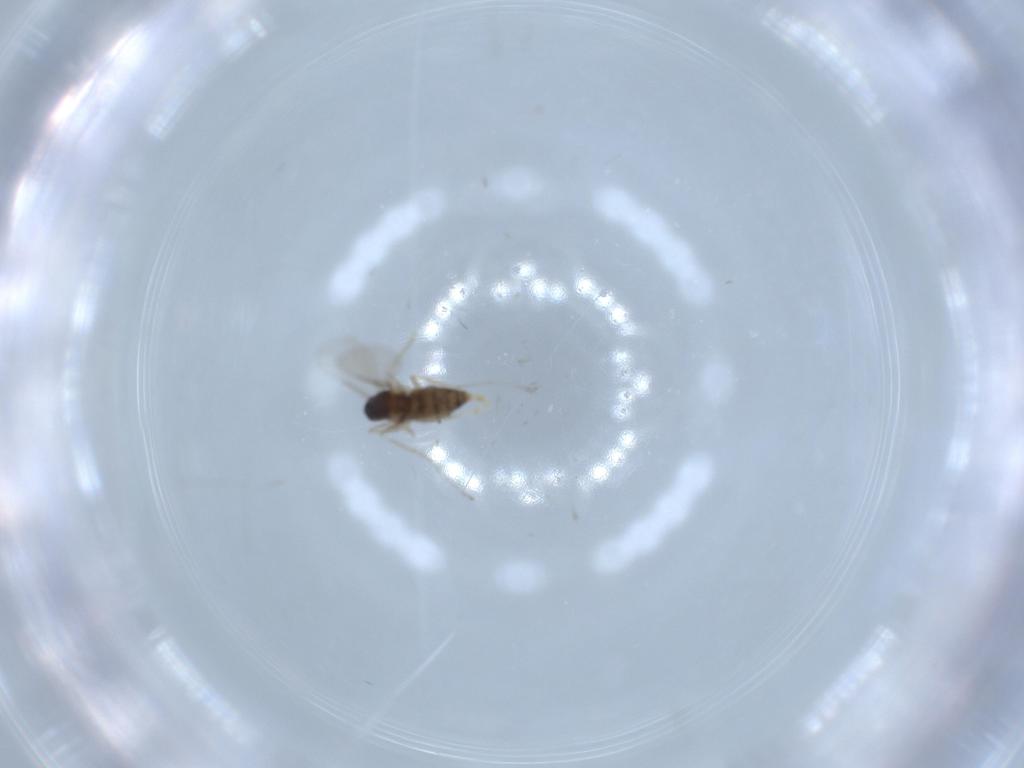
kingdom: Animalia
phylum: Arthropoda
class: Insecta
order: Diptera
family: Cecidomyiidae
